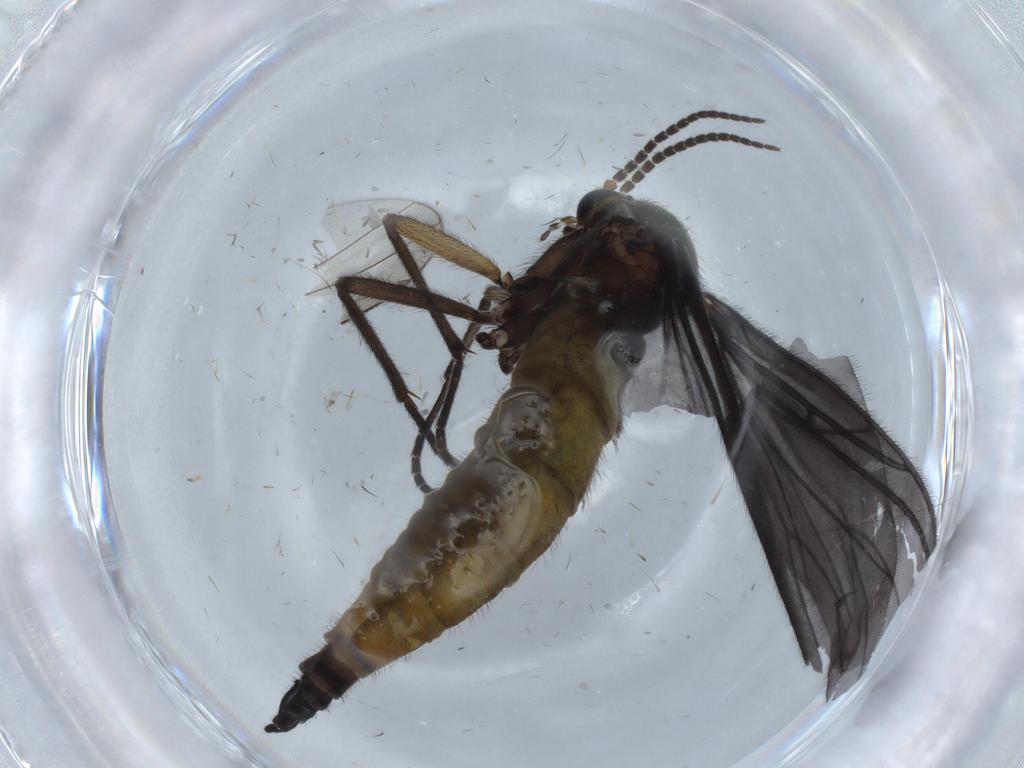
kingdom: Animalia
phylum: Arthropoda
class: Insecta
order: Diptera
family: Sciaridae
